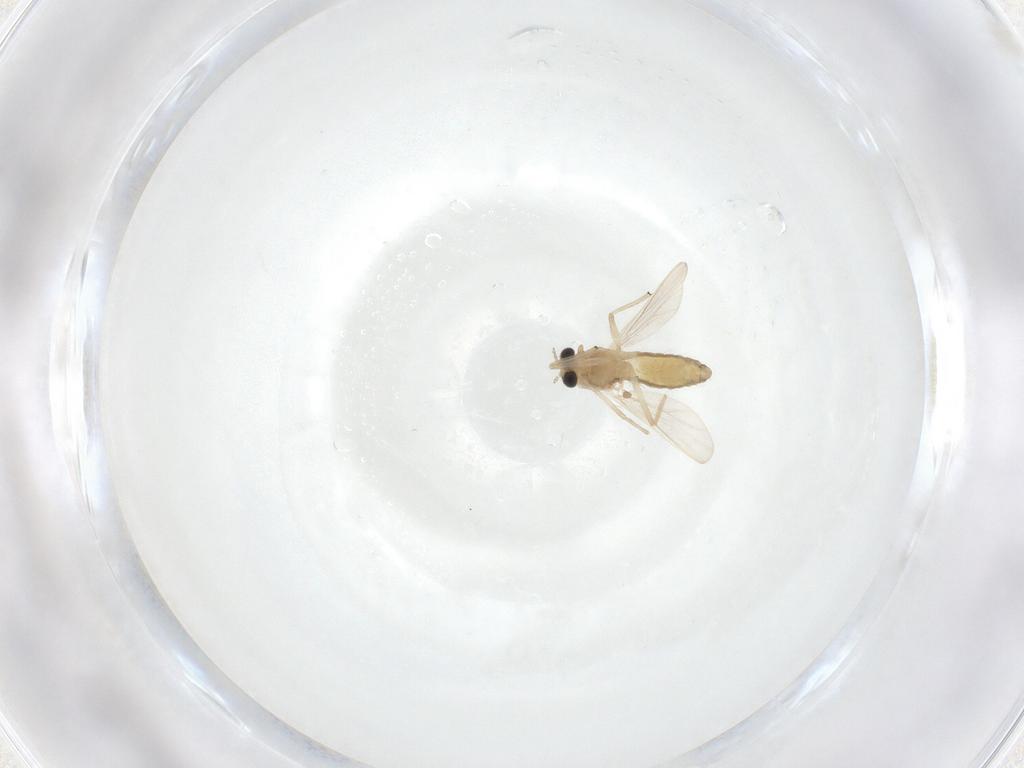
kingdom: Animalia
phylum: Arthropoda
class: Insecta
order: Diptera
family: Chironomidae
